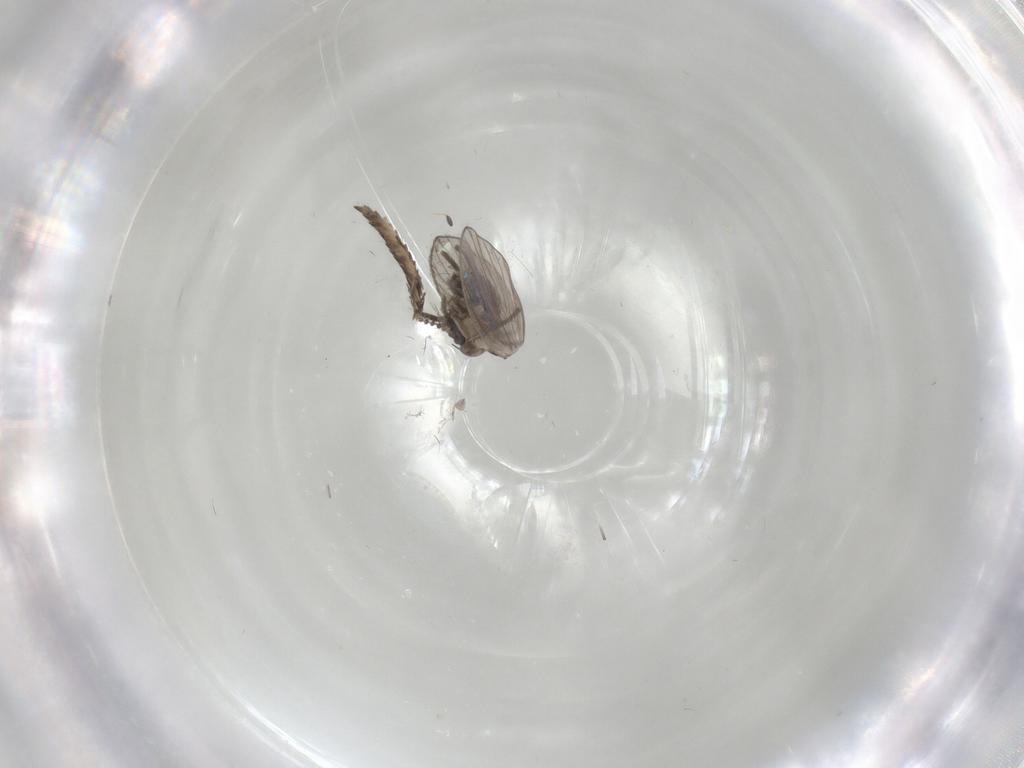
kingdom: Animalia
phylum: Arthropoda
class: Insecta
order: Diptera
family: Psychodidae
